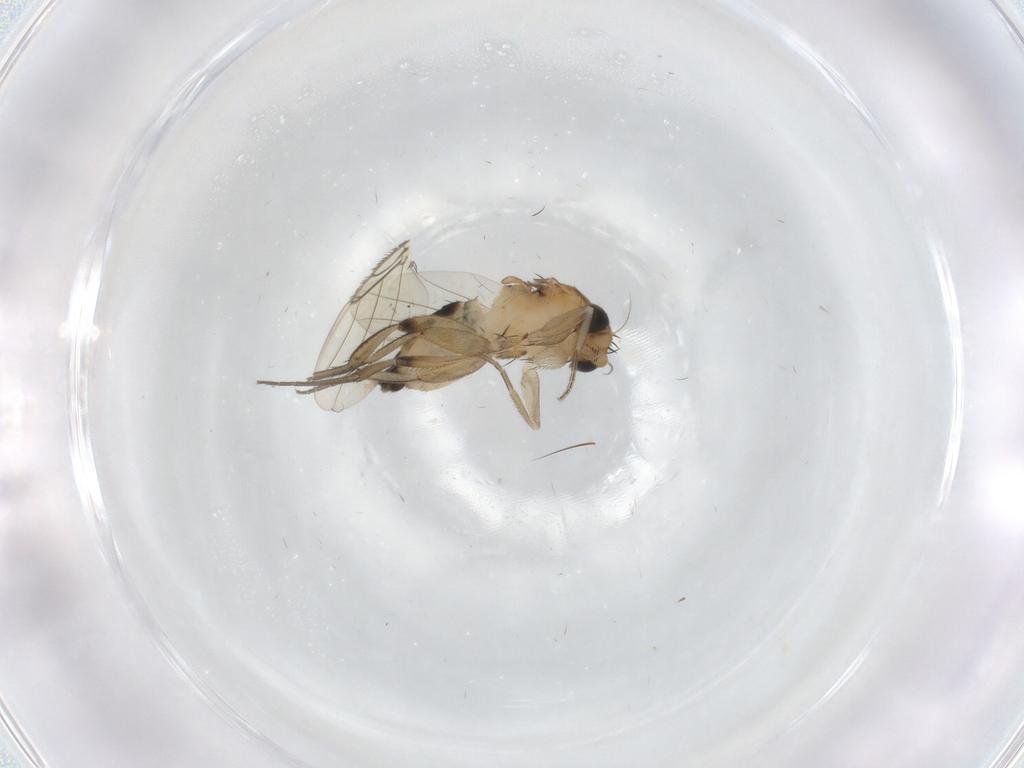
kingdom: Animalia
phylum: Arthropoda
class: Insecta
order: Diptera
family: Phoridae
